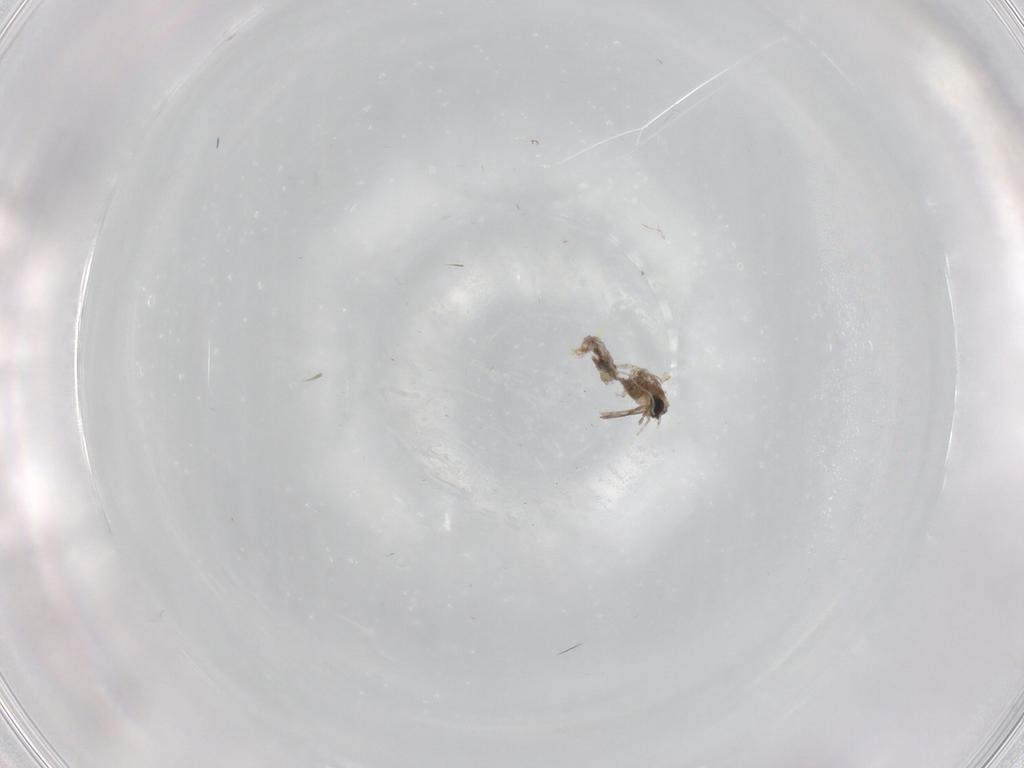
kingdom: Animalia
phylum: Arthropoda
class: Insecta
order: Diptera
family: Cecidomyiidae
